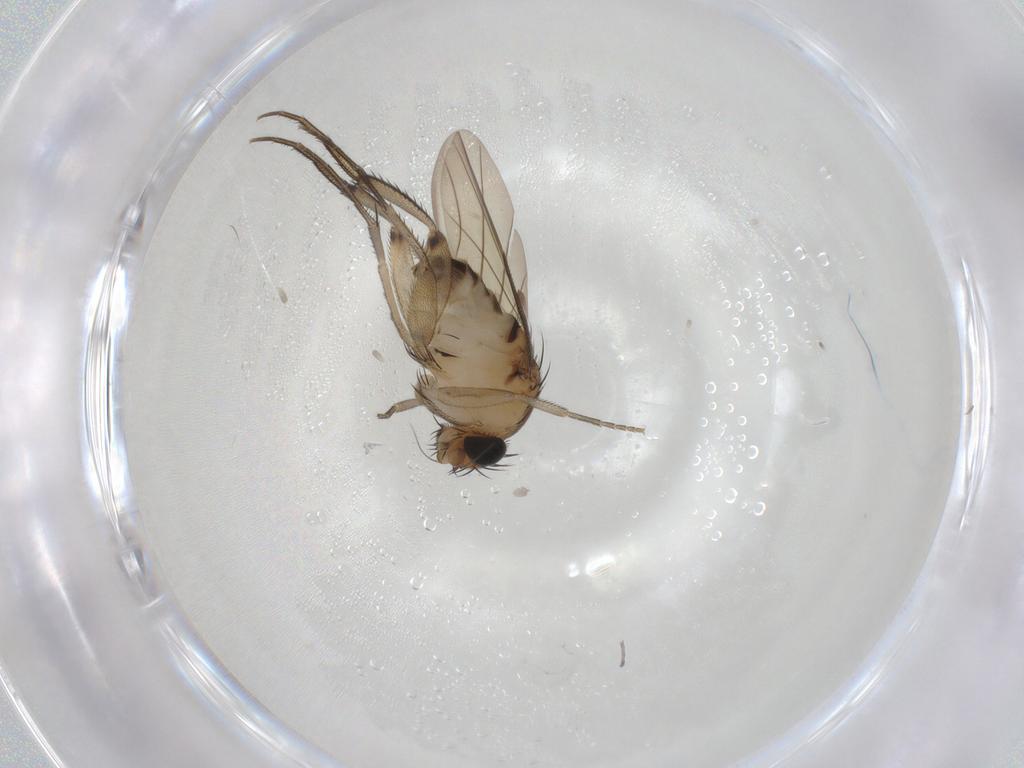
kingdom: Animalia
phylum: Arthropoda
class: Insecta
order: Diptera
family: Phoridae
